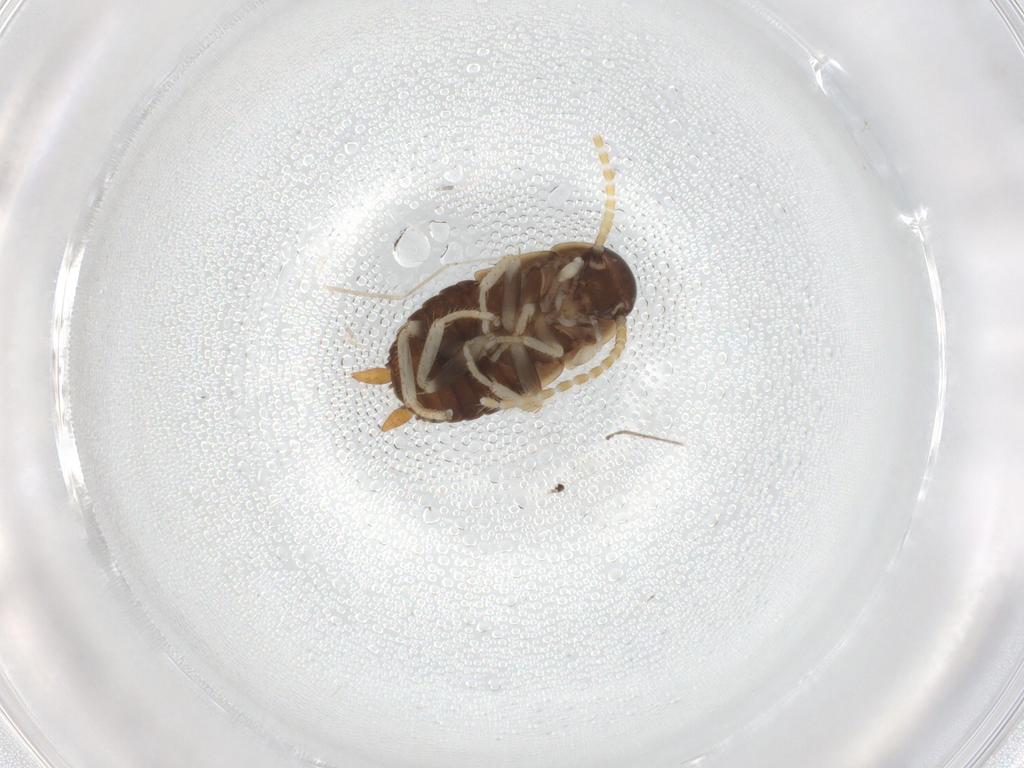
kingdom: Animalia
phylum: Arthropoda
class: Insecta
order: Blattodea
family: Ectobiidae
